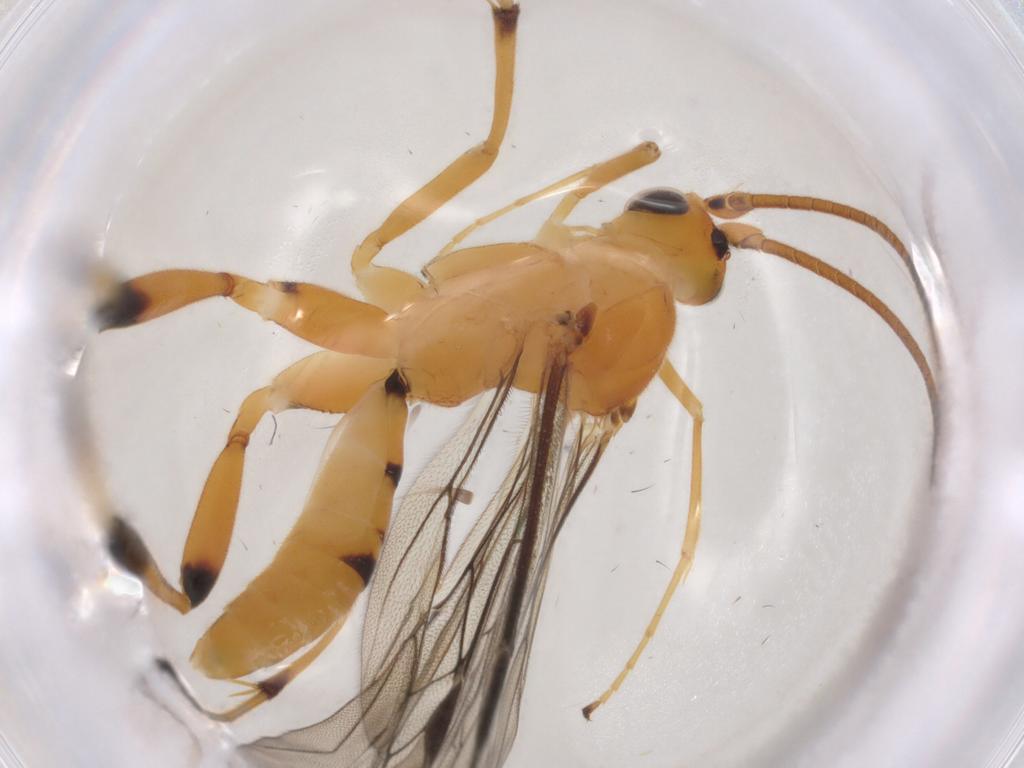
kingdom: Animalia
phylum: Arthropoda
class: Insecta
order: Hymenoptera
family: Braconidae
